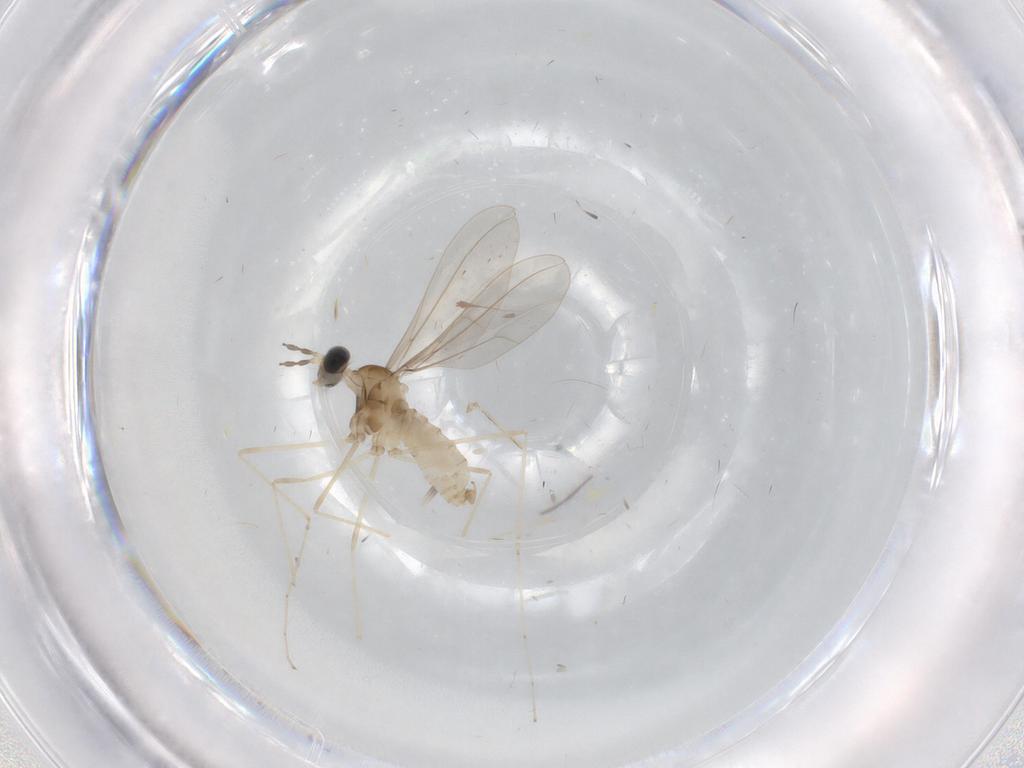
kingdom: Animalia
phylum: Arthropoda
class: Insecta
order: Diptera
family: Cecidomyiidae
